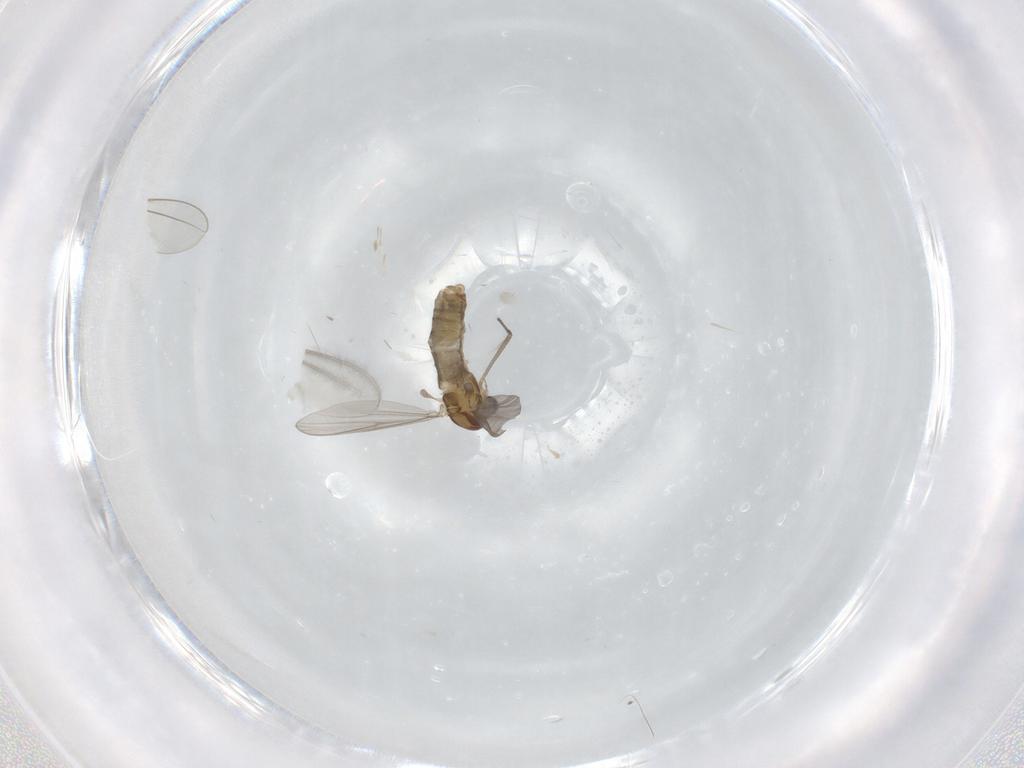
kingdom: Animalia
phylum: Arthropoda
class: Insecta
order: Diptera
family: Cecidomyiidae
